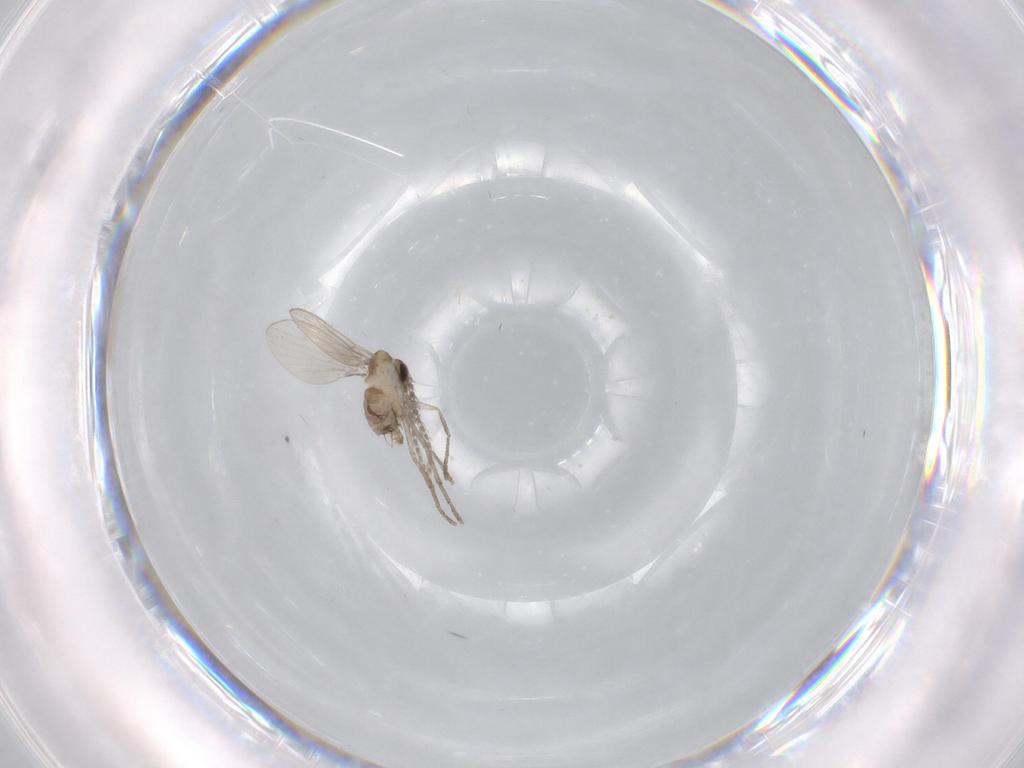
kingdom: Animalia
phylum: Arthropoda
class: Insecta
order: Diptera
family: Psychodidae
